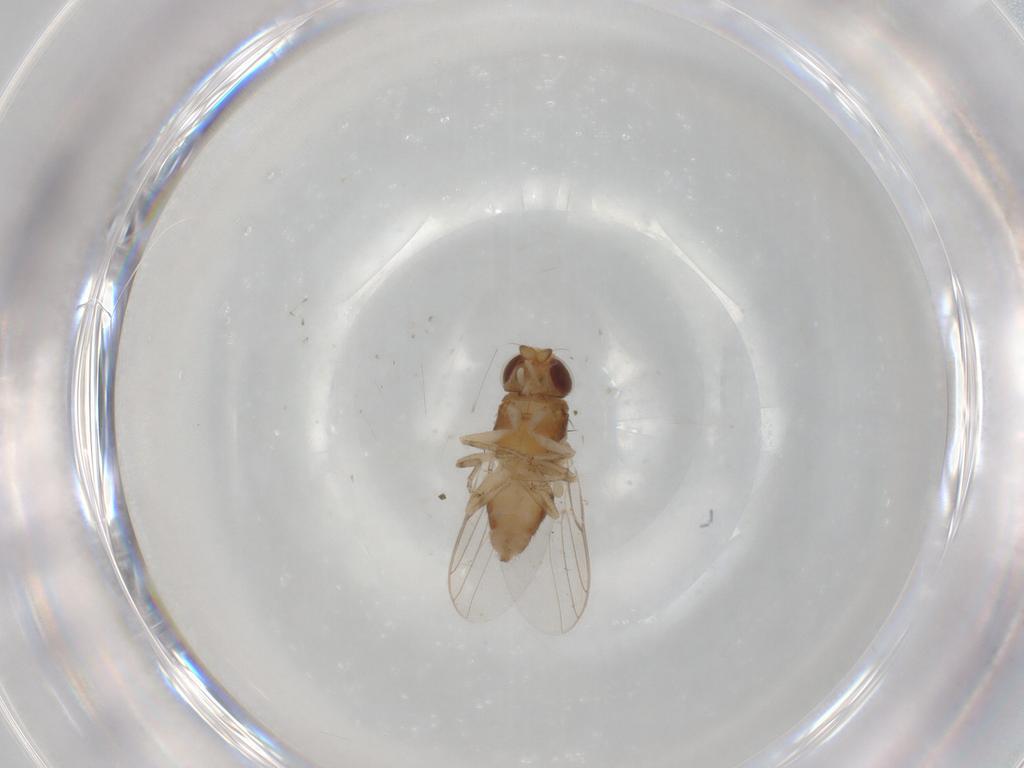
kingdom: Animalia
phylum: Arthropoda
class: Insecta
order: Diptera
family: Chloropidae
